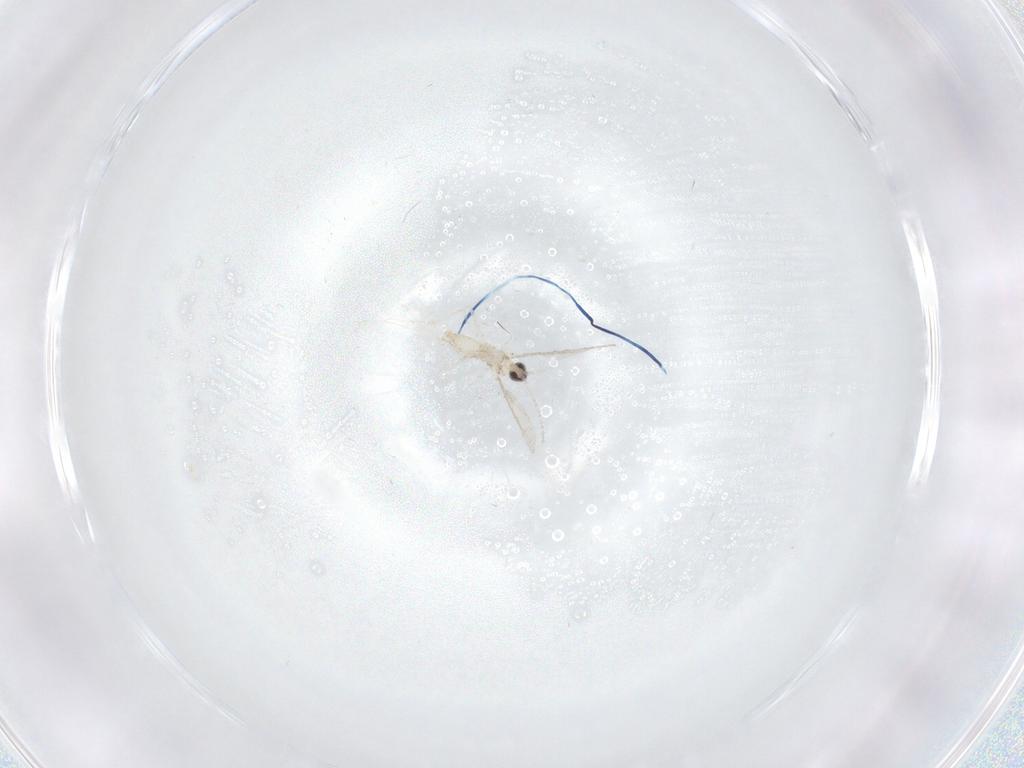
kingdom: Animalia
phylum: Arthropoda
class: Insecta
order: Diptera
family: Cecidomyiidae
